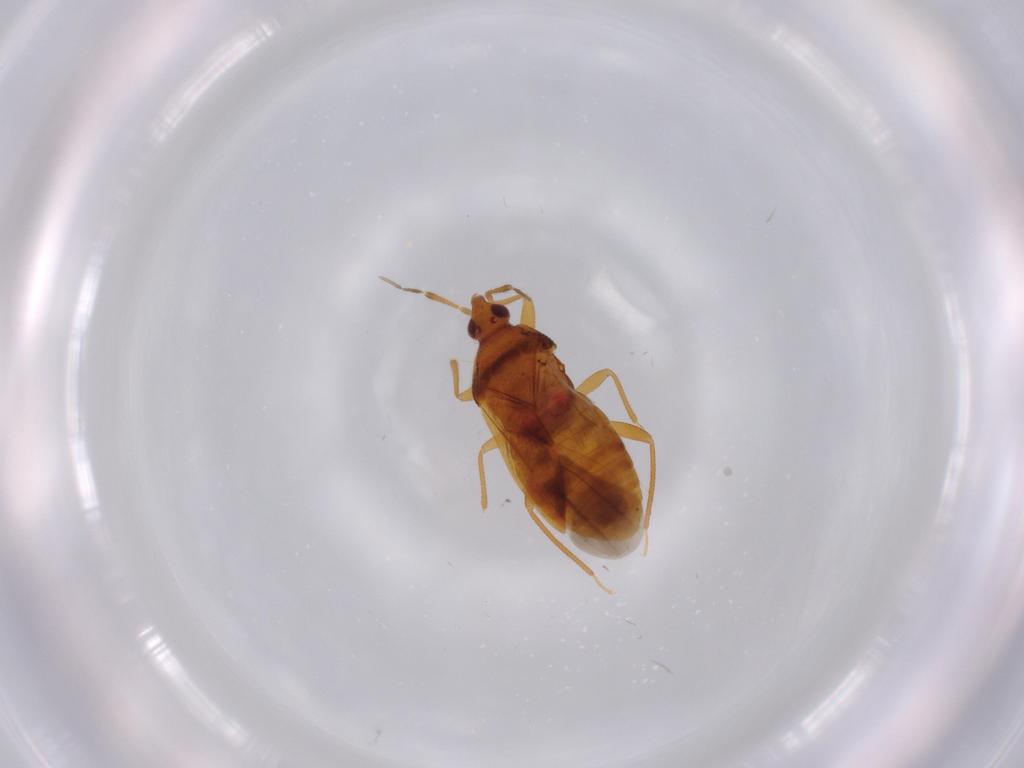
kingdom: Animalia
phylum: Arthropoda
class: Insecta
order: Hemiptera
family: Anthocoridae
